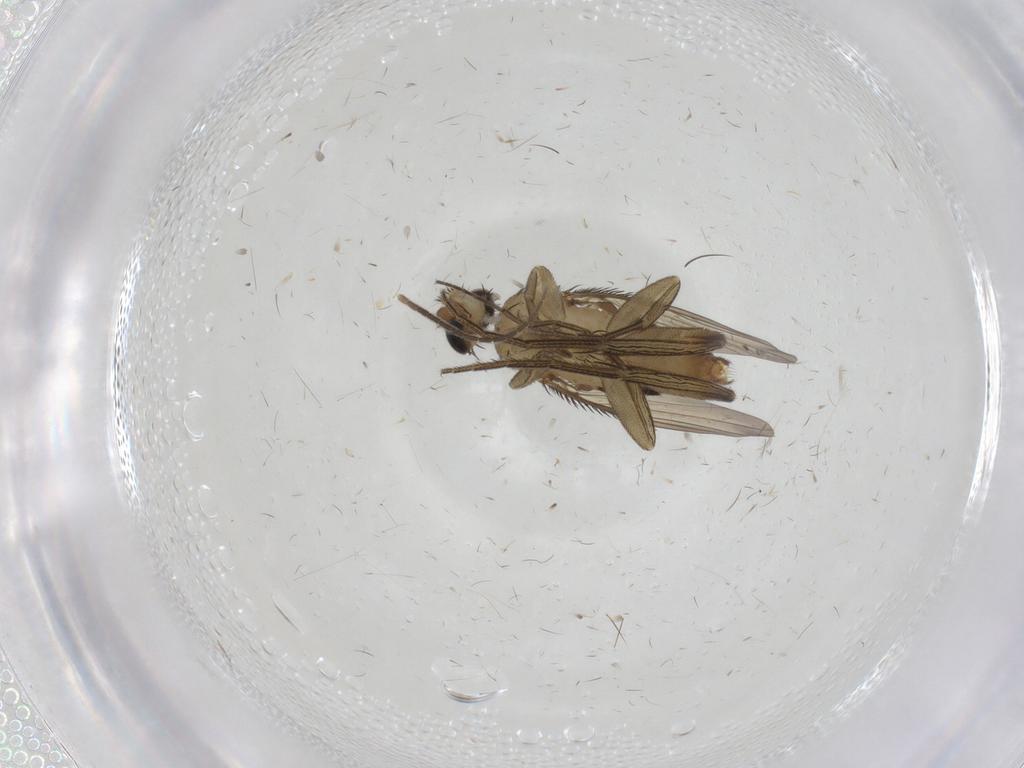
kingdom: Animalia
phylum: Arthropoda
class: Insecta
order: Diptera
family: Phoridae
